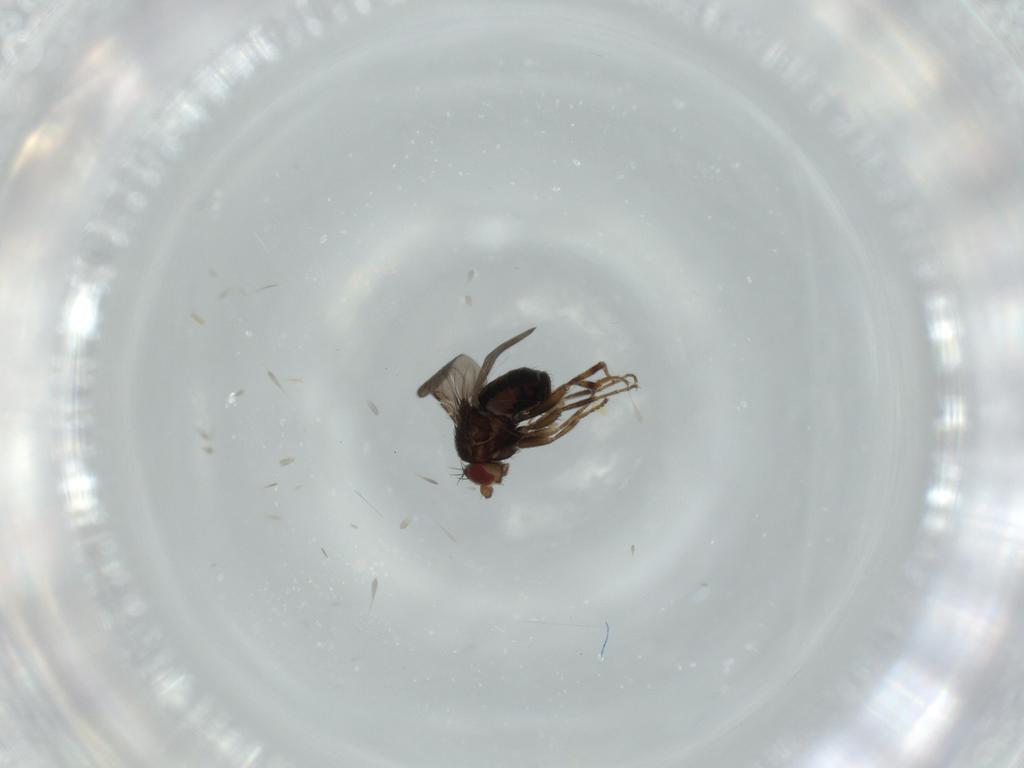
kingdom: Animalia
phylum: Arthropoda
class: Insecta
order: Diptera
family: Sphaeroceridae
